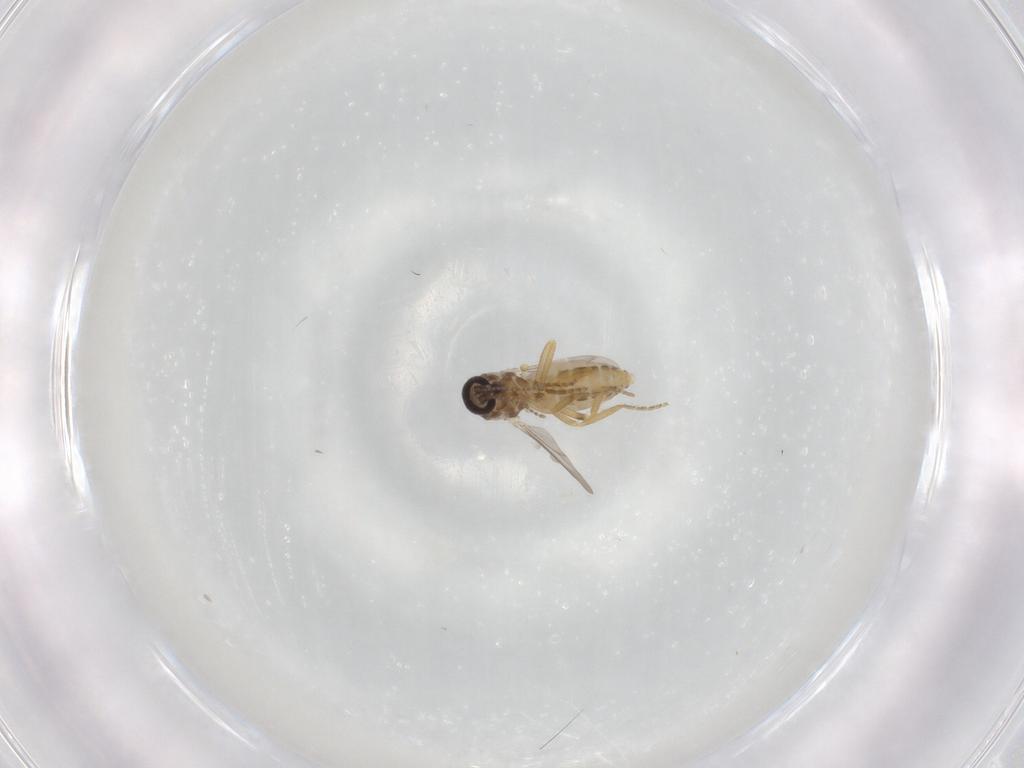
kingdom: Animalia
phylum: Arthropoda
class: Insecta
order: Diptera
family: Ceratopogonidae
